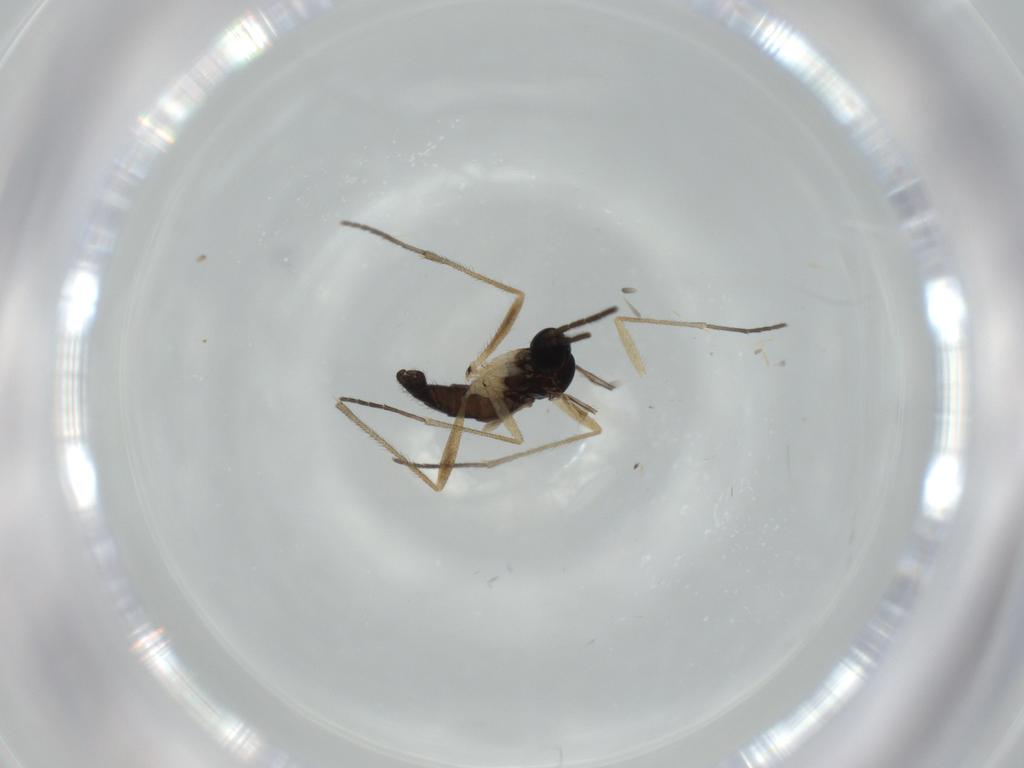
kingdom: Animalia
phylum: Arthropoda
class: Insecta
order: Diptera
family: Sciaridae
